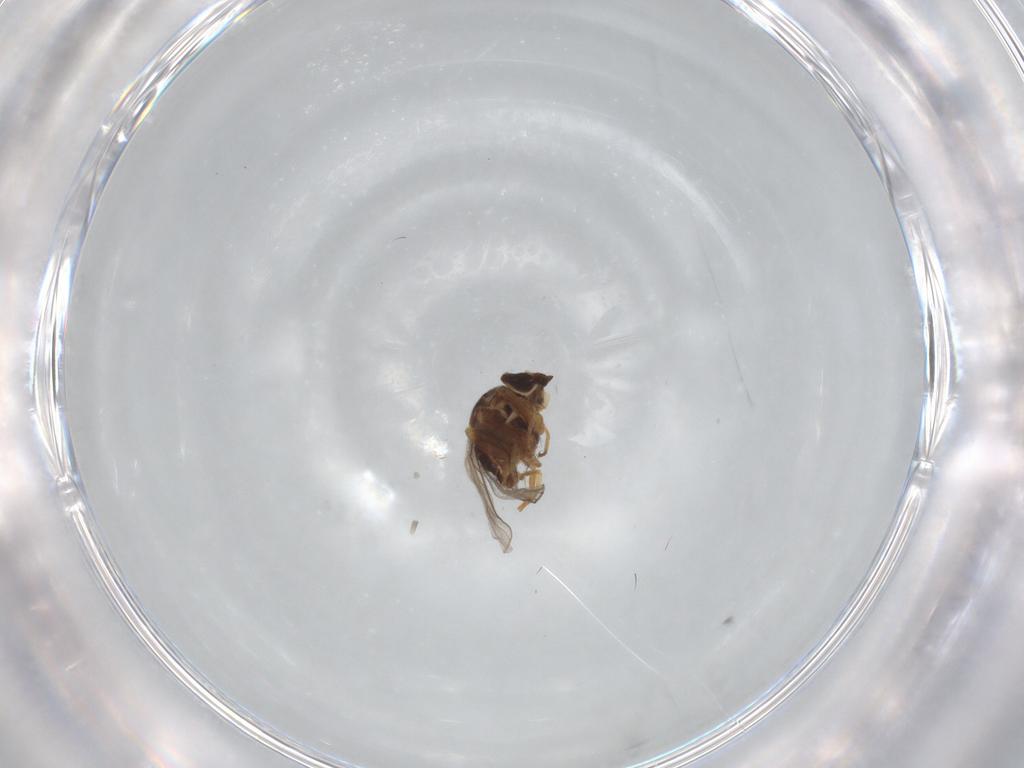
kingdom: Animalia
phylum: Arthropoda
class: Insecta
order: Diptera
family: Chloropidae
